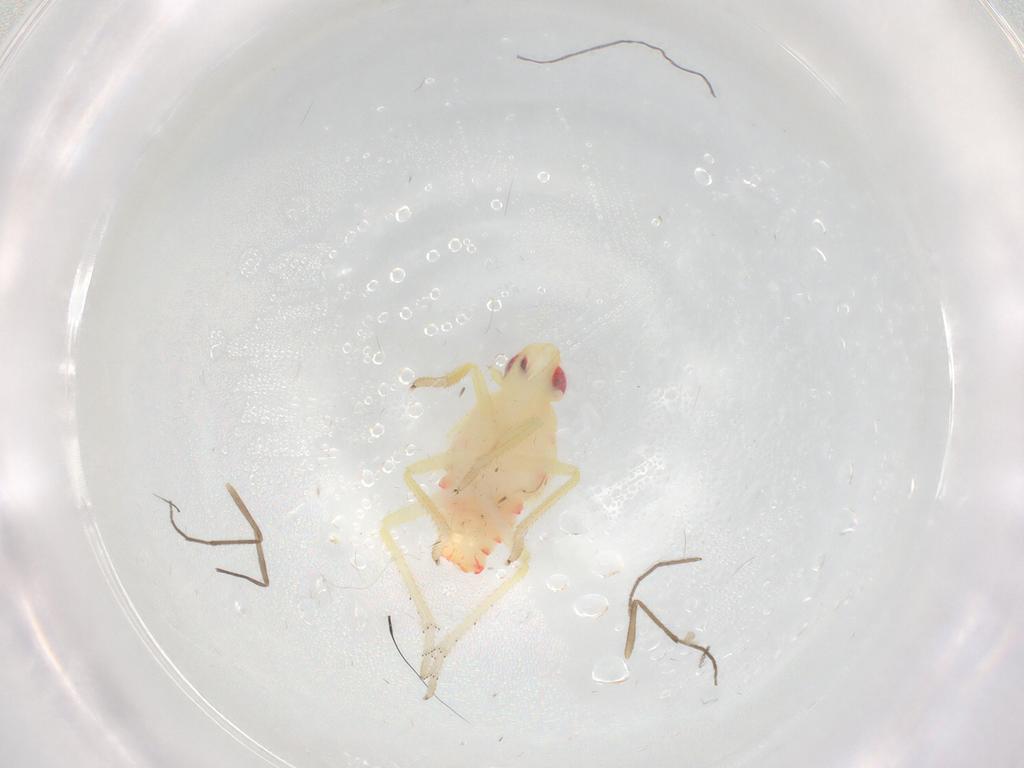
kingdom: Animalia
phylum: Arthropoda
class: Insecta
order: Hemiptera
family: Tropiduchidae
